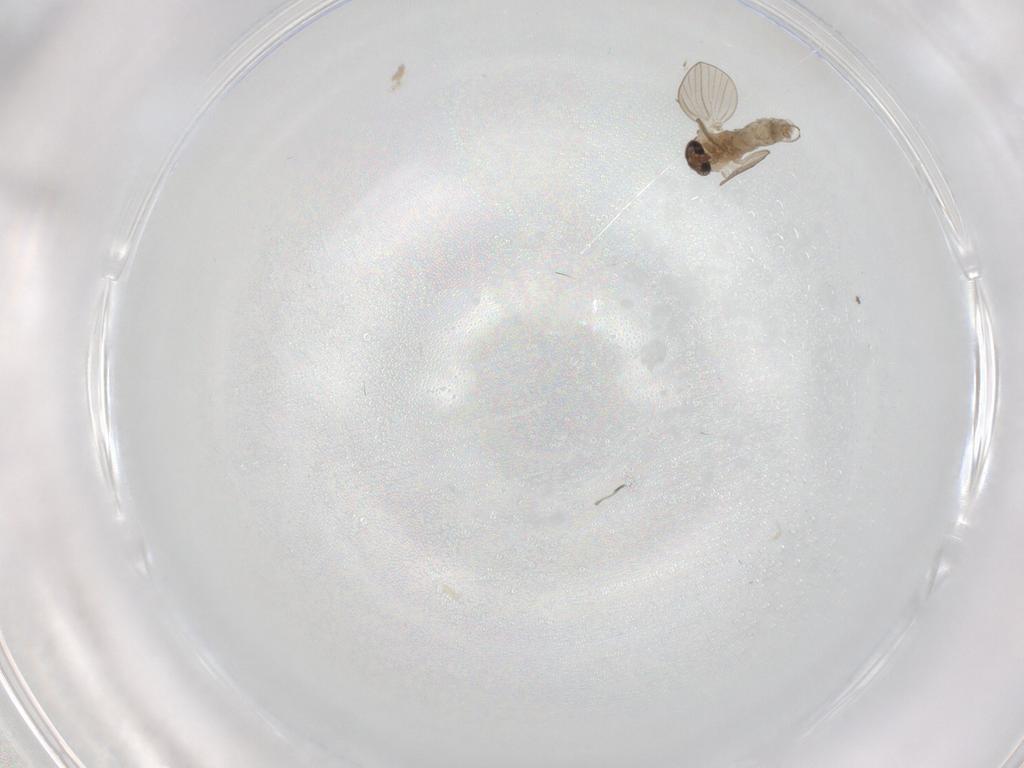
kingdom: Animalia
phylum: Arthropoda
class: Insecta
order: Diptera
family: Psychodidae
